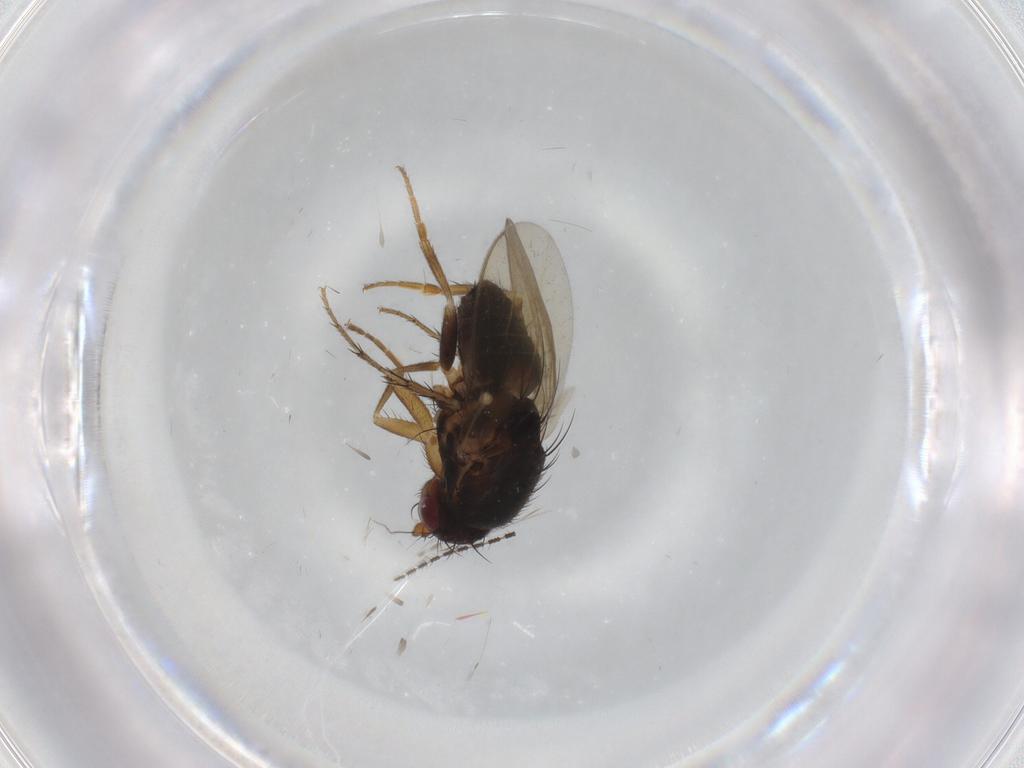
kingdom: Animalia
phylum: Arthropoda
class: Insecta
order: Diptera
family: Sphaeroceridae
